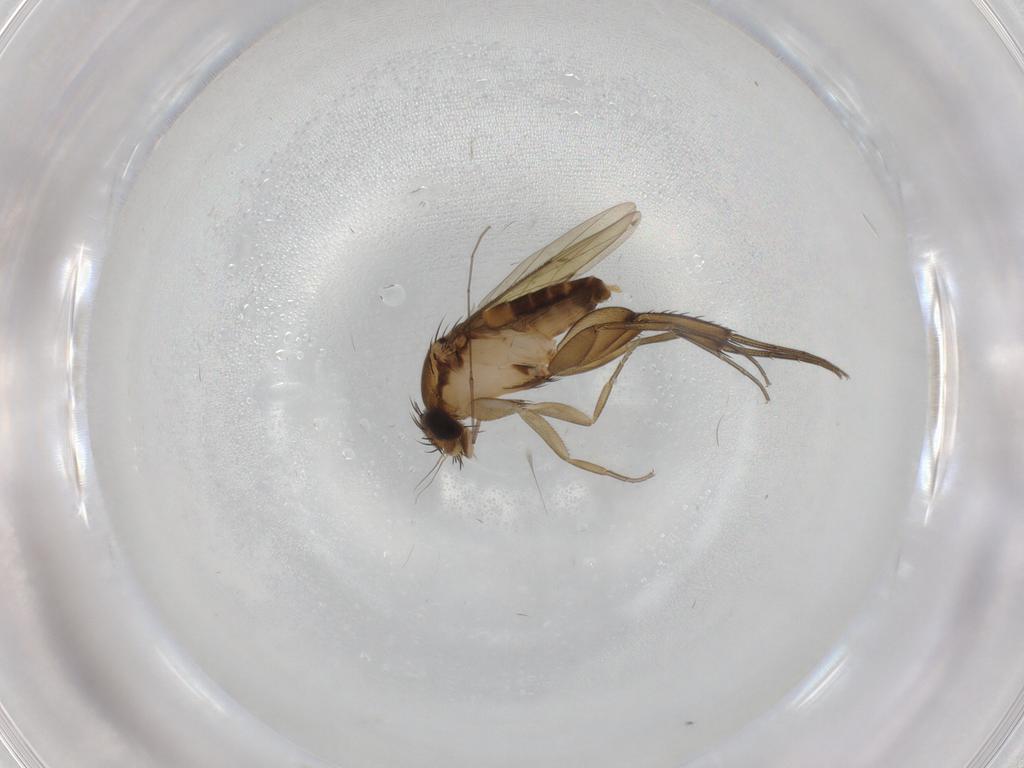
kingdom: Animalia
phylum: Arthropoda
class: Insecta
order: Diptera
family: Phoridae
